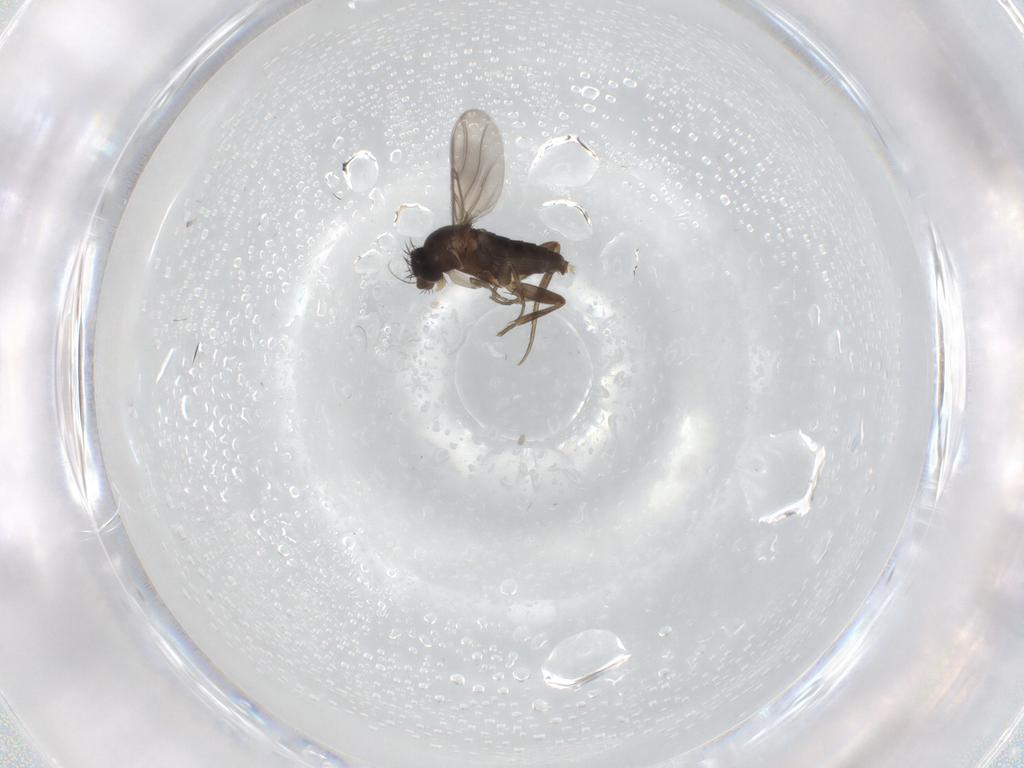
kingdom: Animalia
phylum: Arthropoda
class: Insecta
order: Diptera
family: Phoridae
